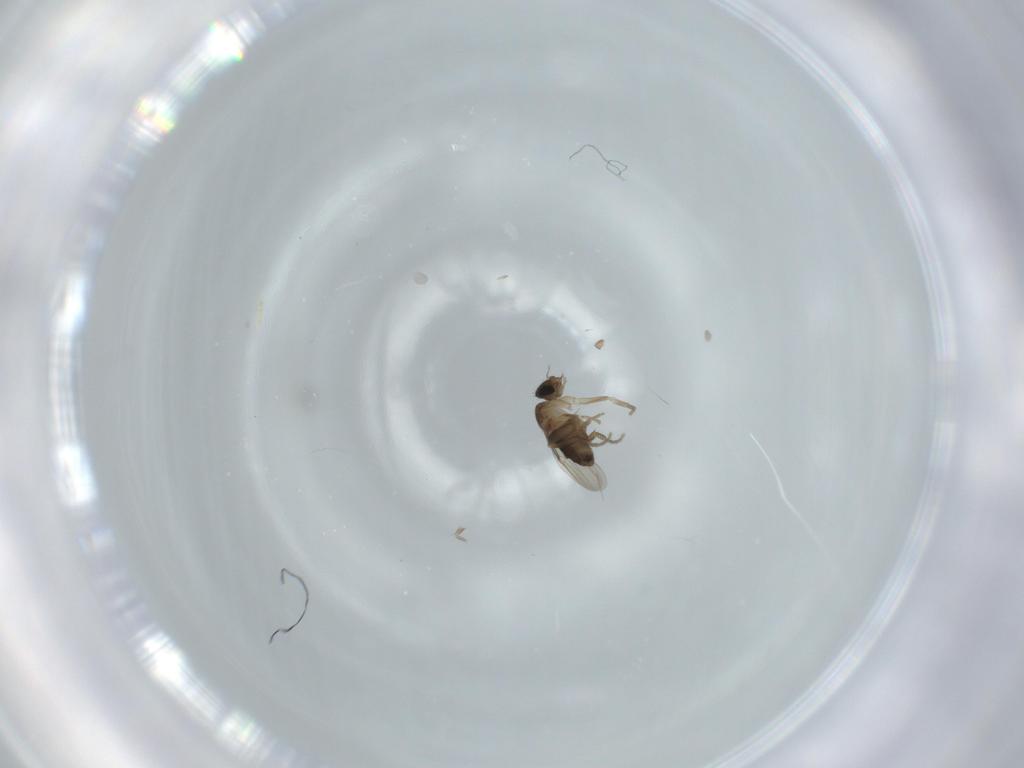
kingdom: Animalia
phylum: Arthropoda
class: Insecta
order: Diptera
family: Phoridae
